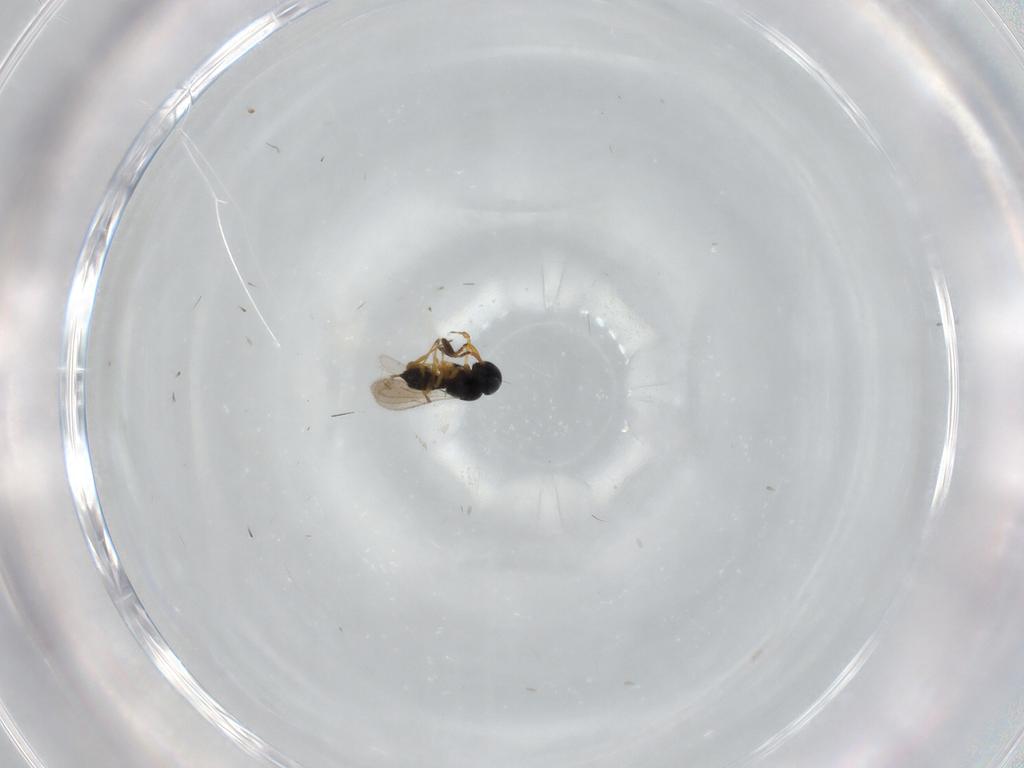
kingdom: Animalia
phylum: Arthropoda
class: Insecta
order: Hymenoptera
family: Scelionidae
